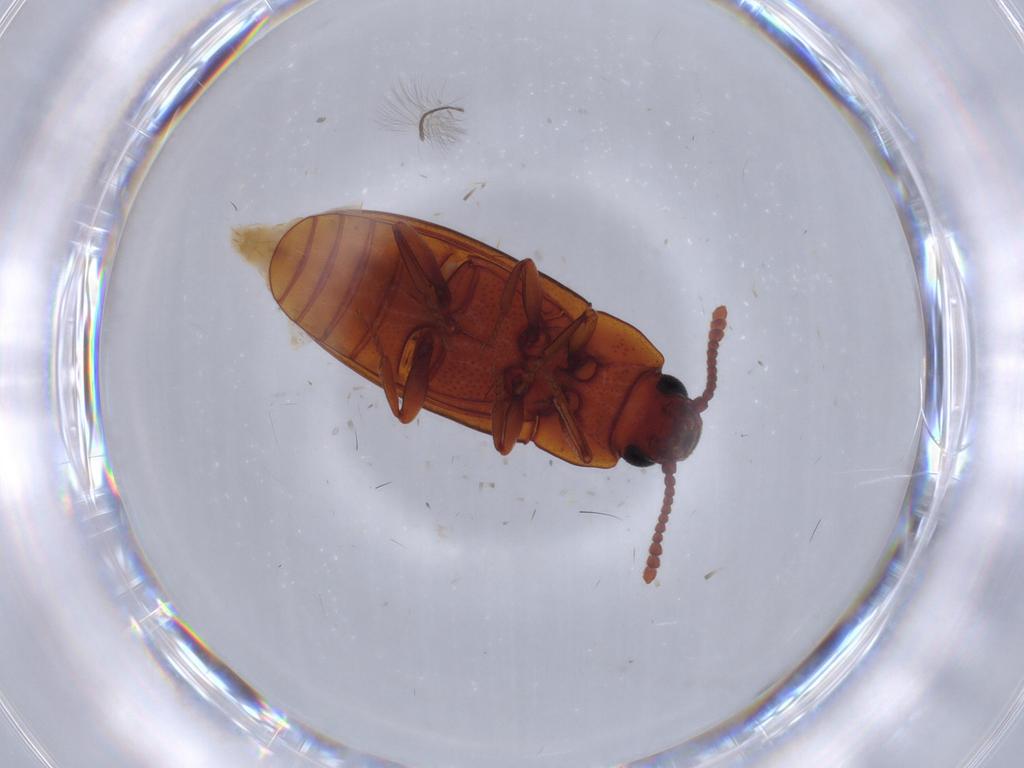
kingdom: Animalia
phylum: Arthropoda
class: Insecta
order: Coleoptera
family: Erotylidae
